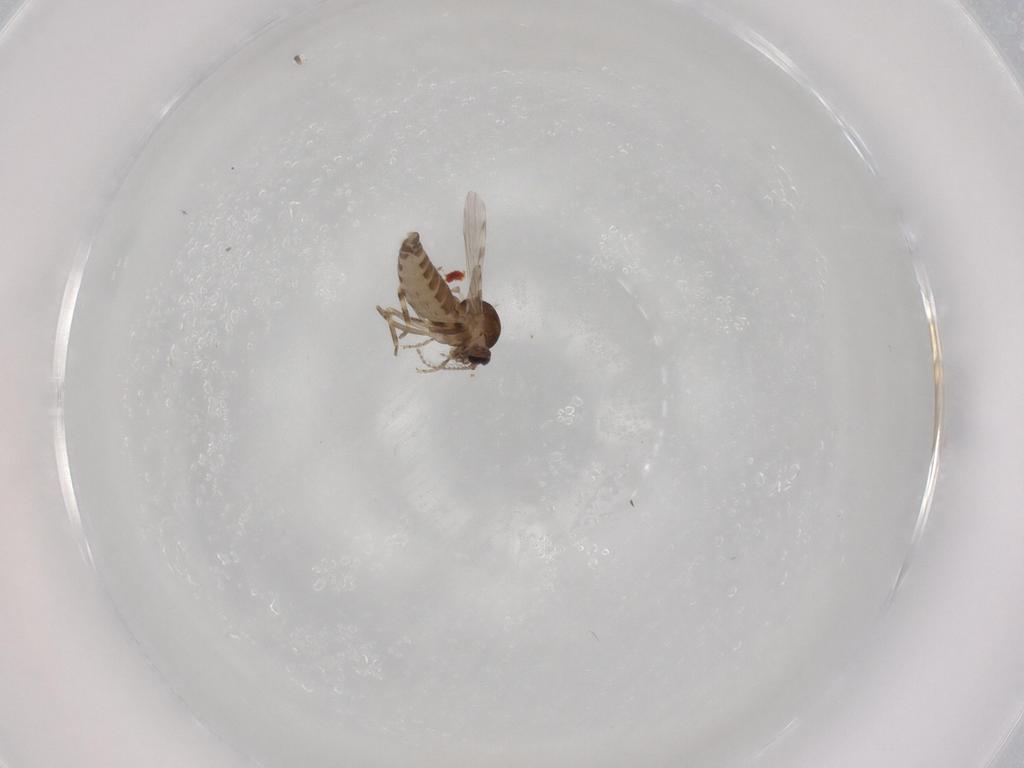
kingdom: Animalia
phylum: Arthropoda
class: Insecta
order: Diptera
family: Ceratopogonidae
